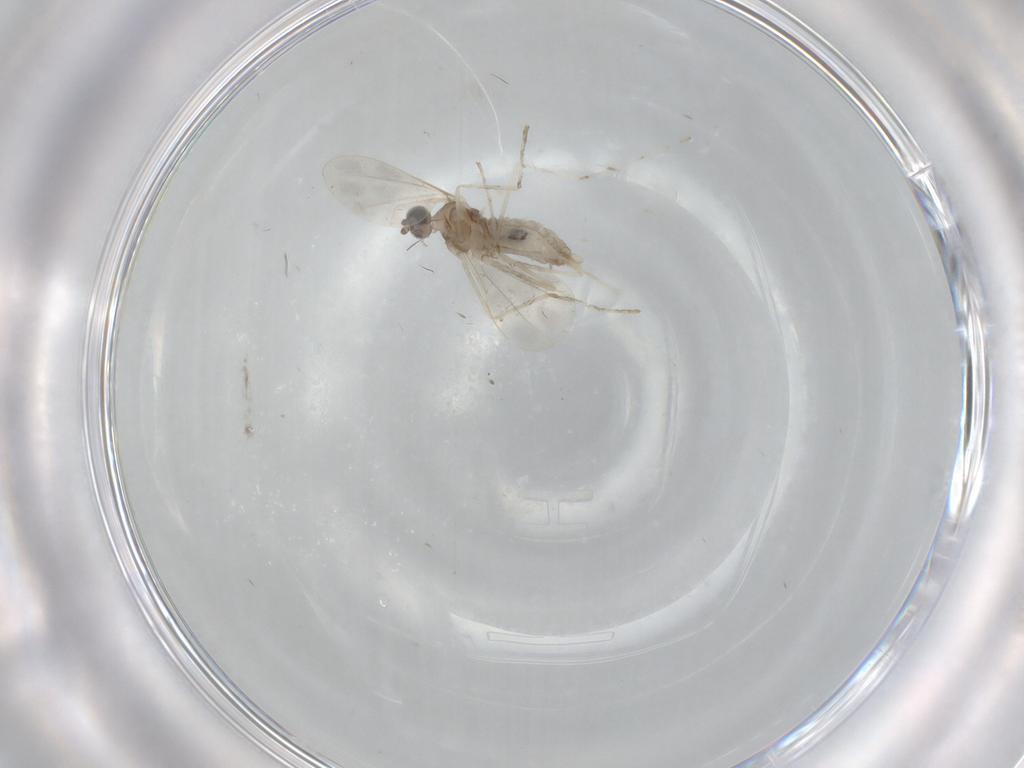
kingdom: Animalia
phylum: Arthropoda
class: Insecta
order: Diptera
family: Cecidomyiidae
